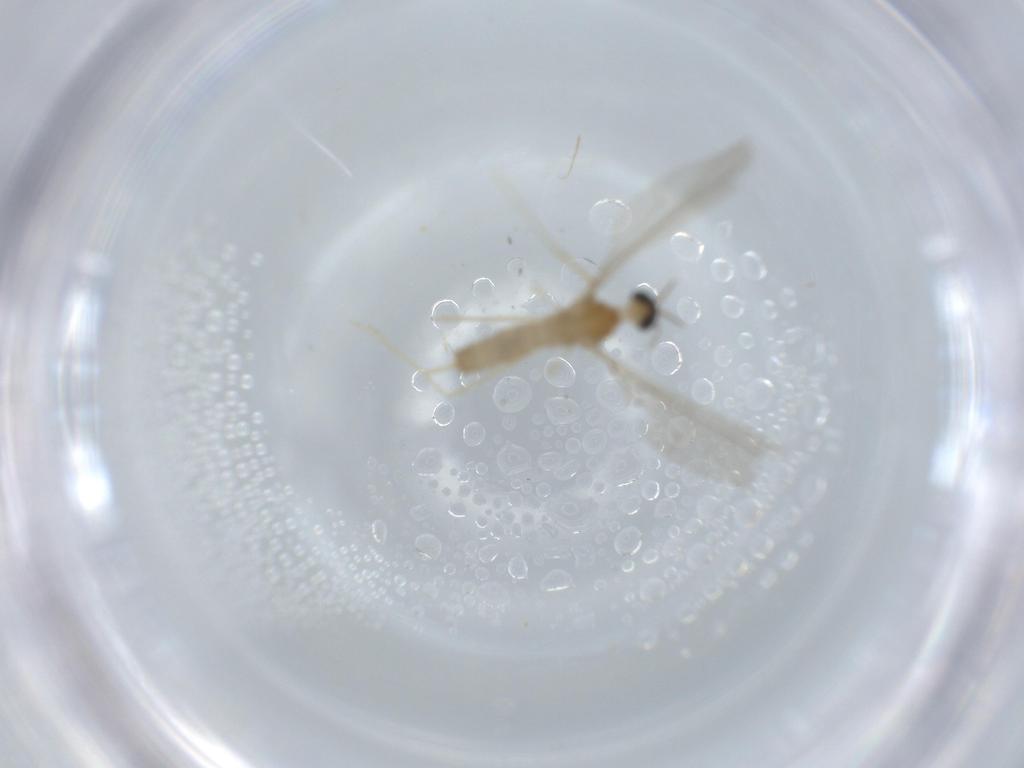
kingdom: Animalia
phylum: Arthropoda
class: Insecta
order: Diptera
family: Cecidomyiidae
